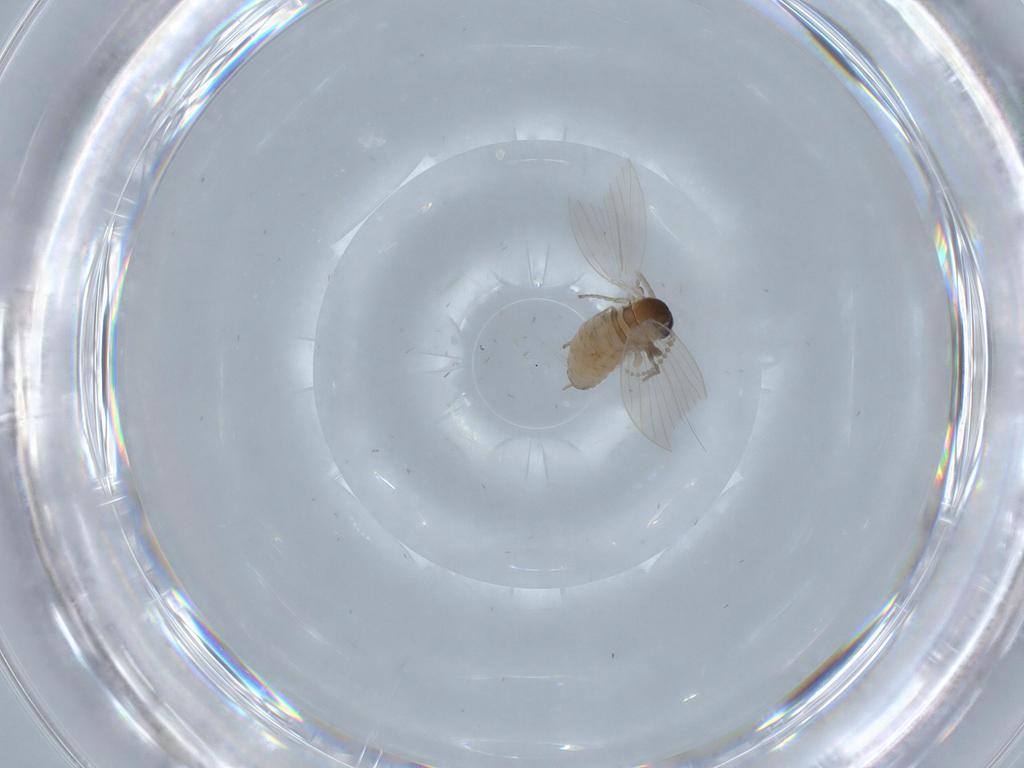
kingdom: Animalia
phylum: Arthropoda
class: Insecta
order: Diptera
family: Psychodidae
